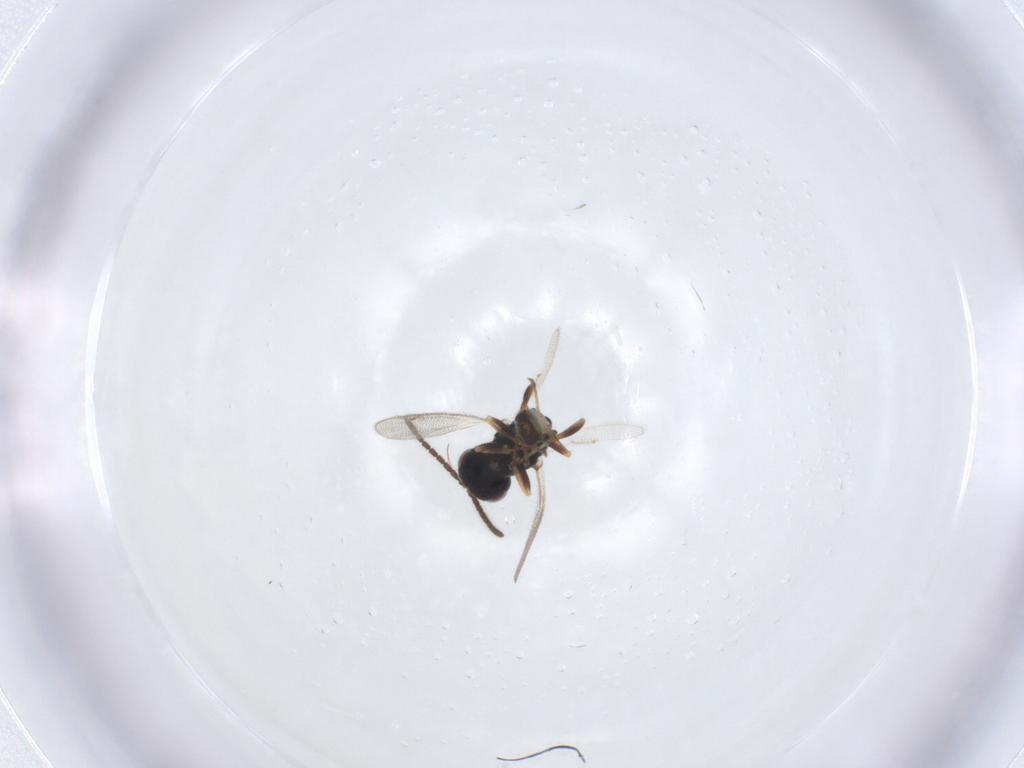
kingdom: Animalia
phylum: Arthropoda
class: Insecta
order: Hymenoptera
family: Pteromalidae
